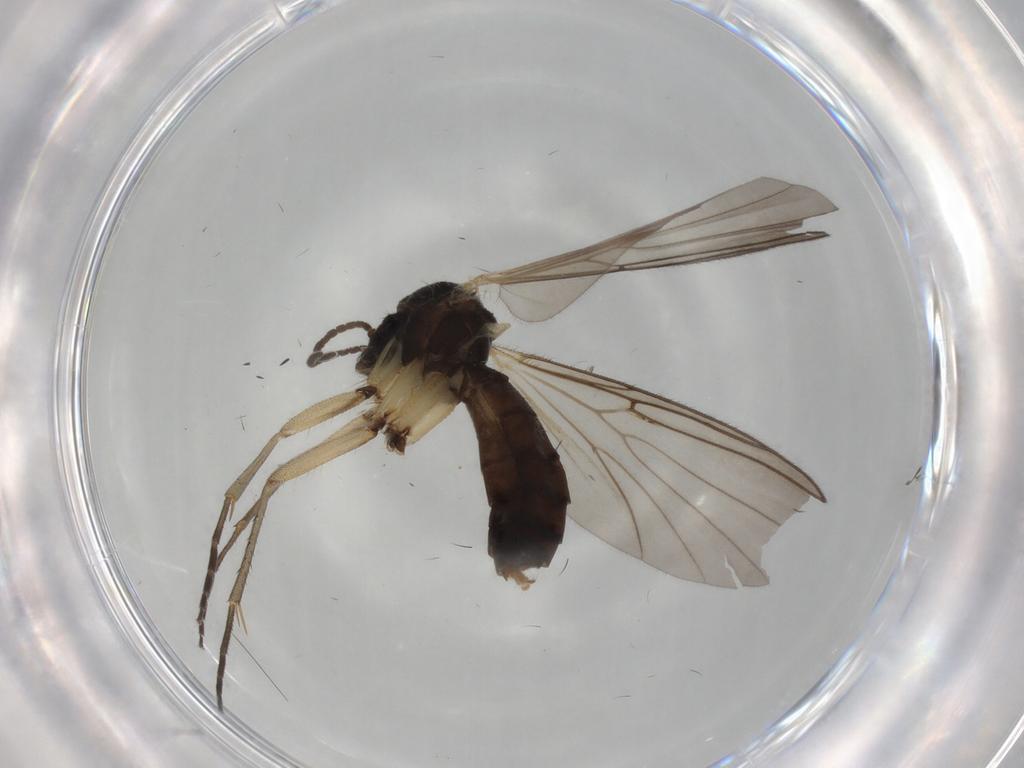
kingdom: Animalia
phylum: Arthropoda
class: Insecta
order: Diptera
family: Mycetophilidae
